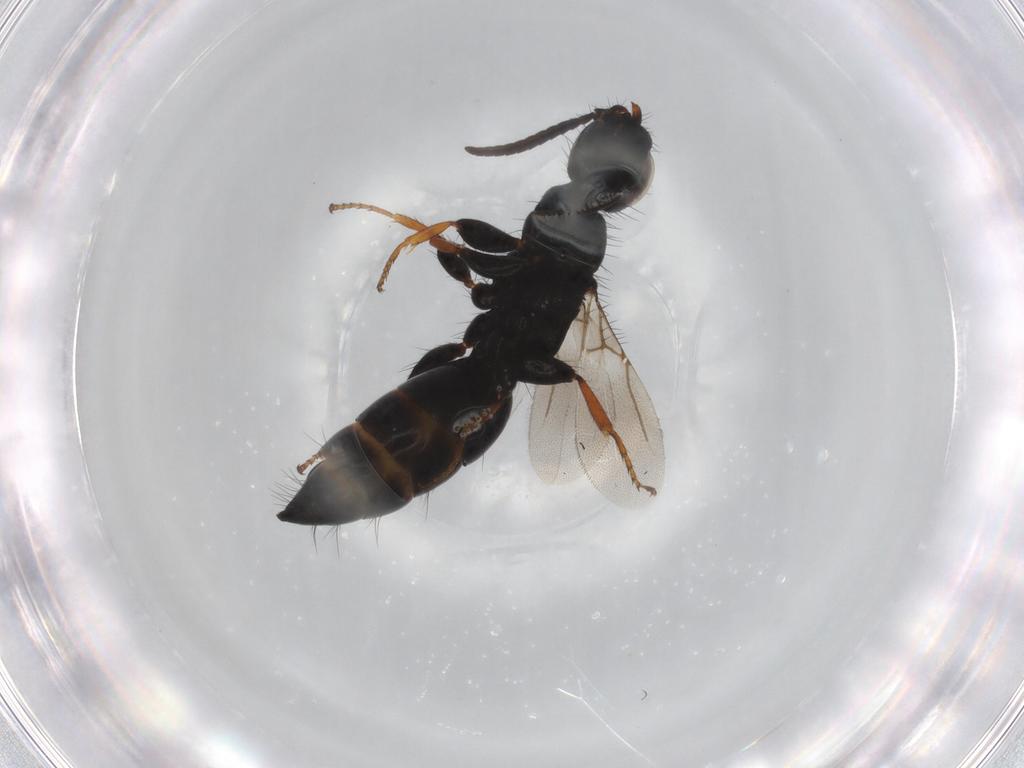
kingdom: Animalia
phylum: Arthropoda
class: Insecta
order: Hymenoptera
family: Bethylidae
